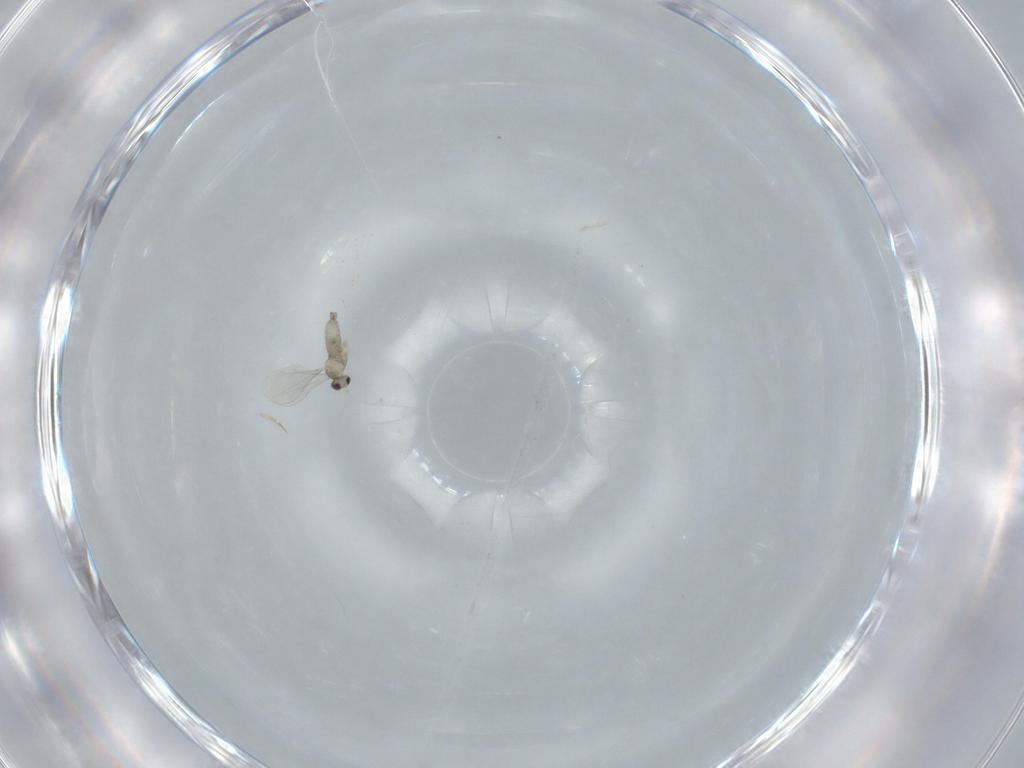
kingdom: Animalia
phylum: Arthropoda
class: Insecta
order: Diptera
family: Cecidomyiidae
